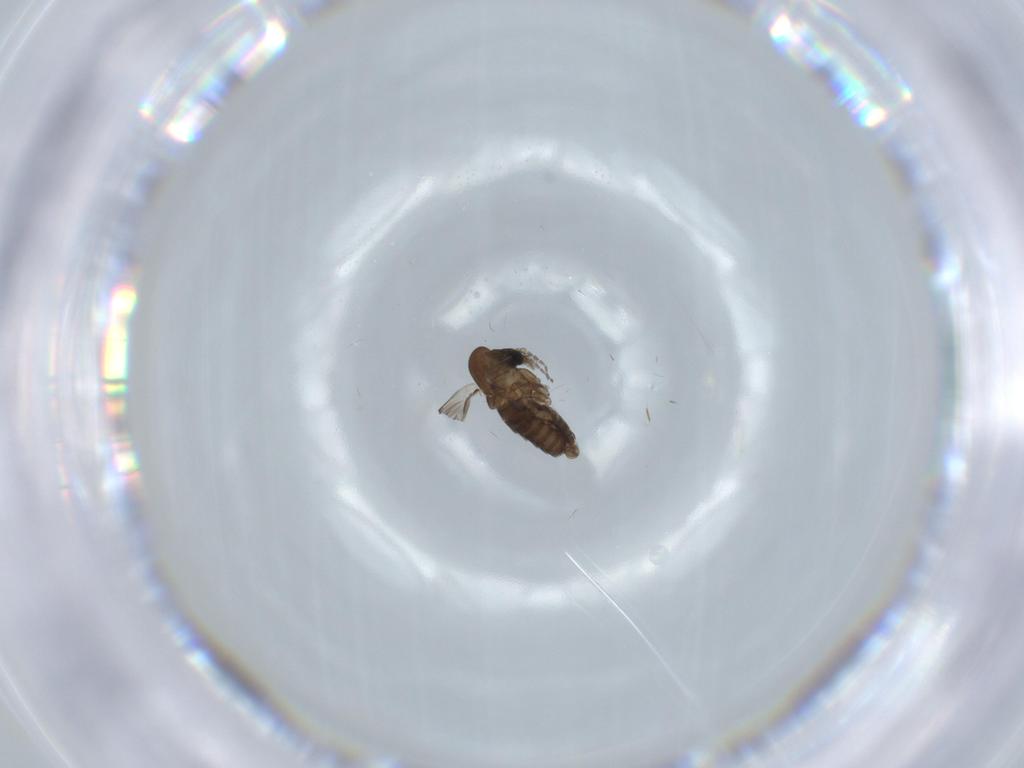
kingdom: Animalia
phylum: Arthropoda
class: Insecta
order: Diptera
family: Psychodidae
